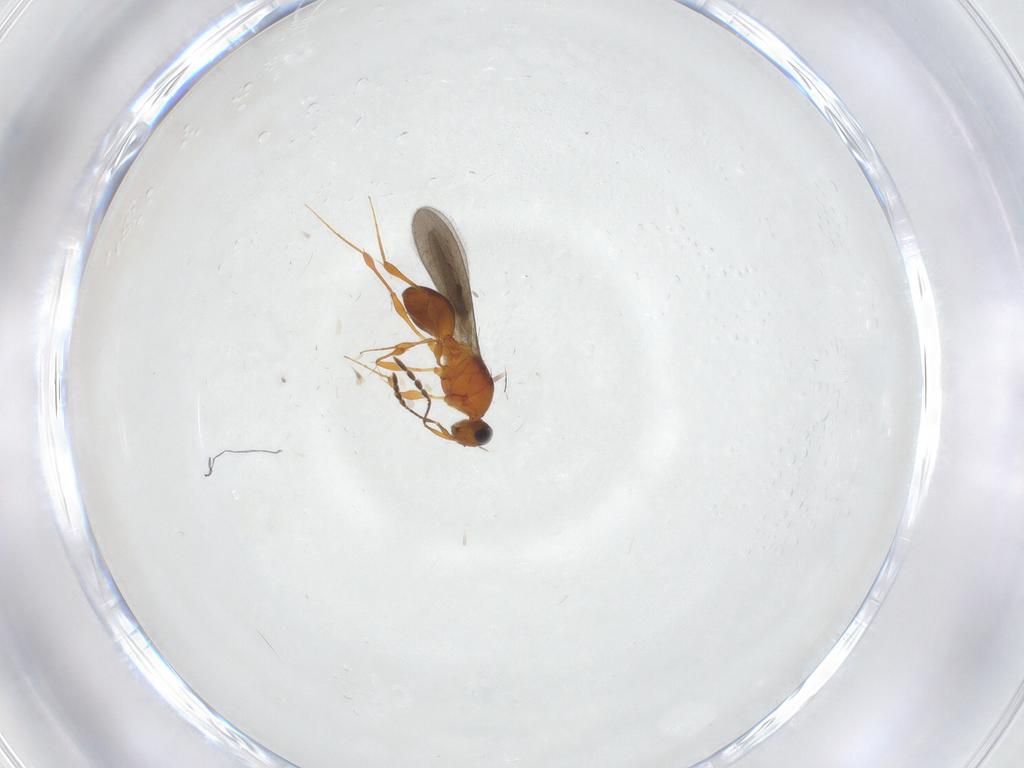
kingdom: Animalia
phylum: Arthropoda
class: Insecta
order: Hymenoptera
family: Platygastridae
